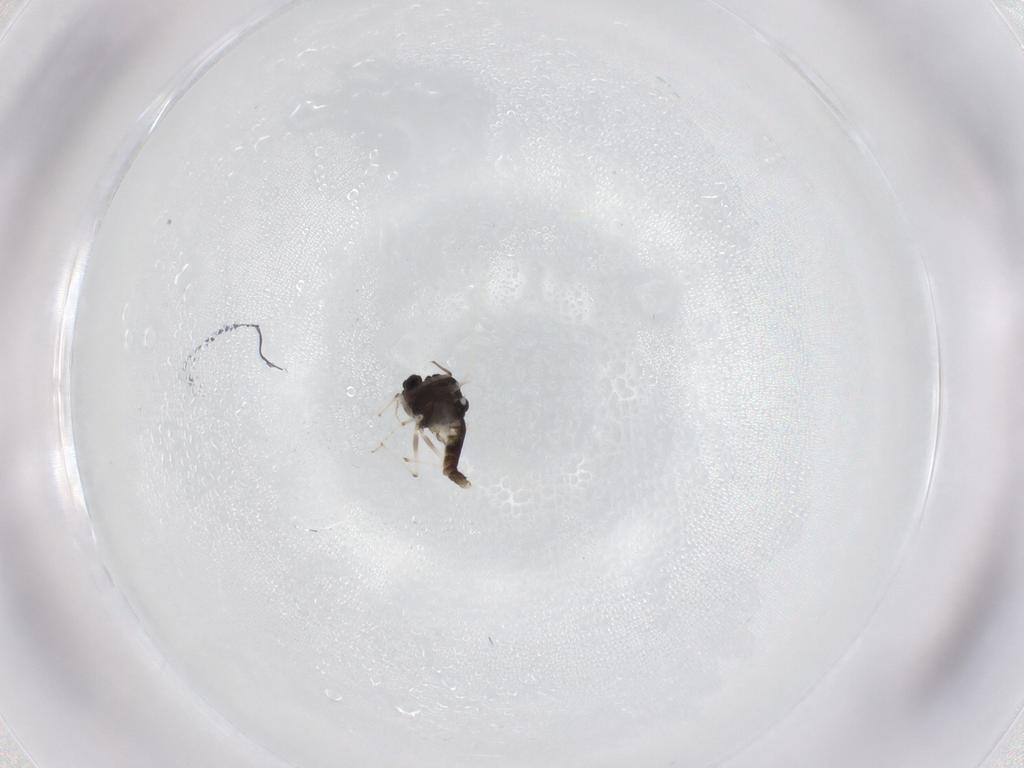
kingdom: Animalia
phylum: Arthropoda
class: Insecta
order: Diptera
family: Chironomidae
